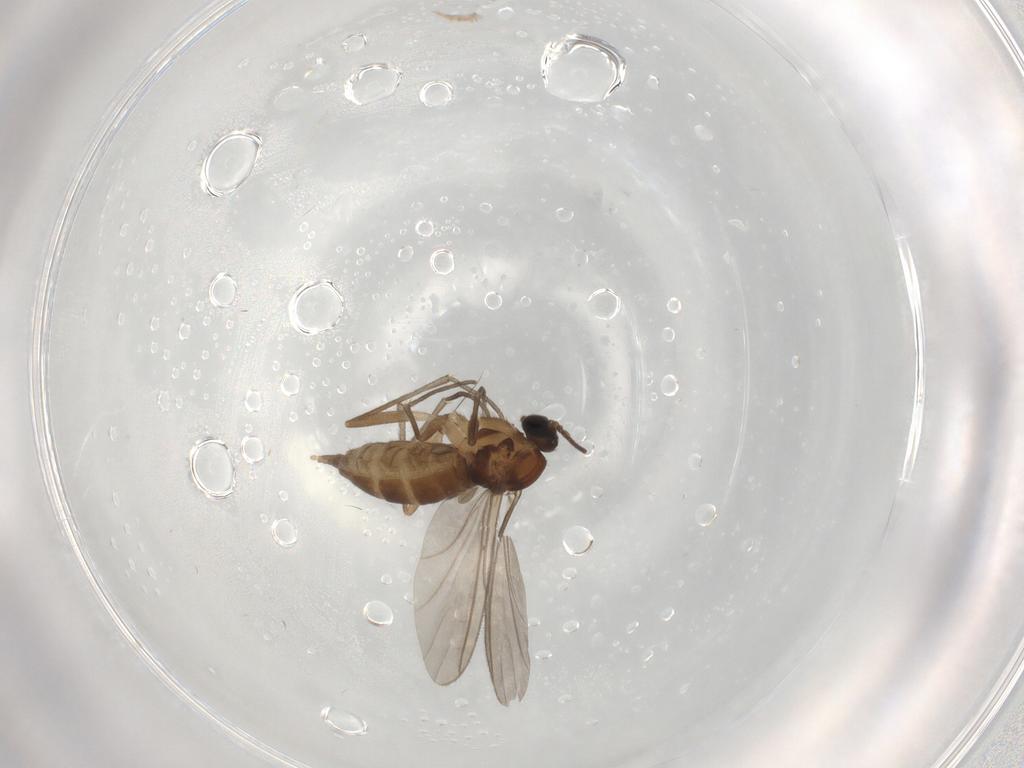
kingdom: Animalia
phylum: Arthropoda
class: Insecta
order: Diptera
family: Sciaridae
